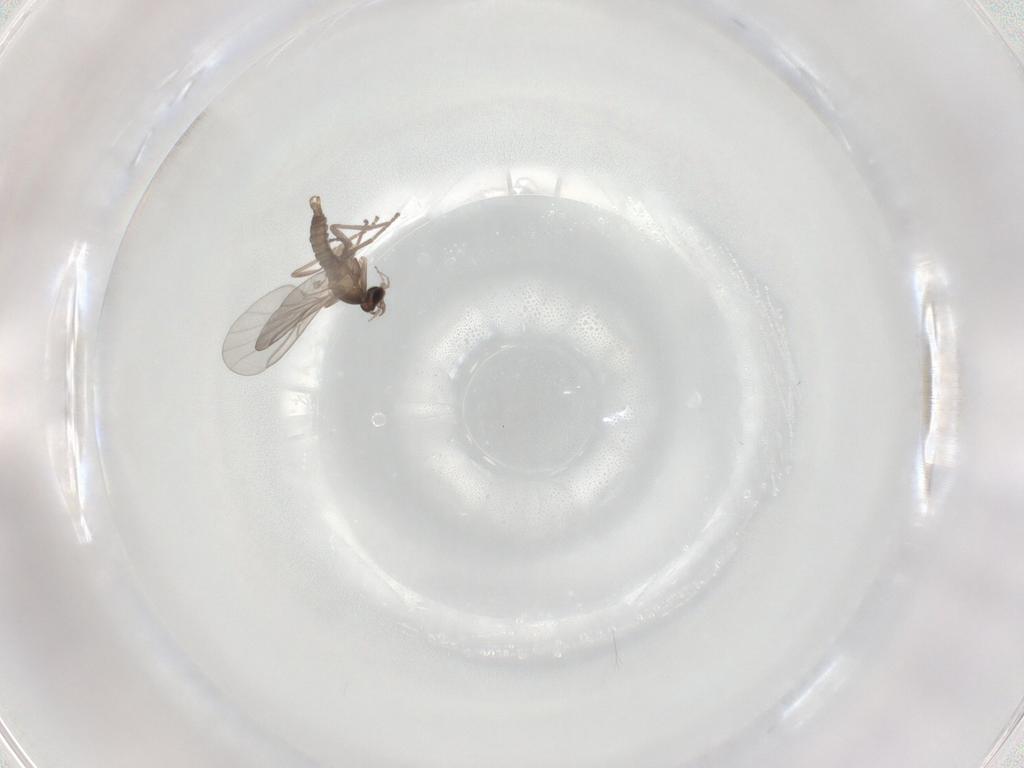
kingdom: Animalia
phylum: Arthropoda
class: Insecta
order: Diptera
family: Cecidomyiidae
